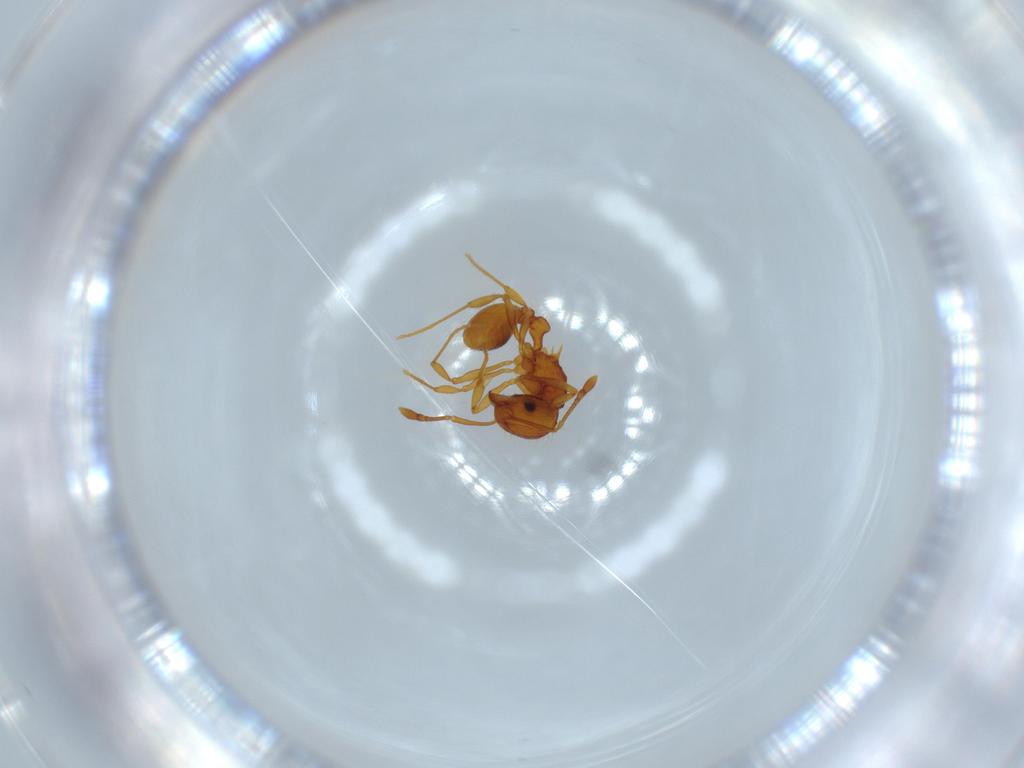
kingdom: Animalia
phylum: Arthropoda
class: Insecta
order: Hymenoptera
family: Formicidae
